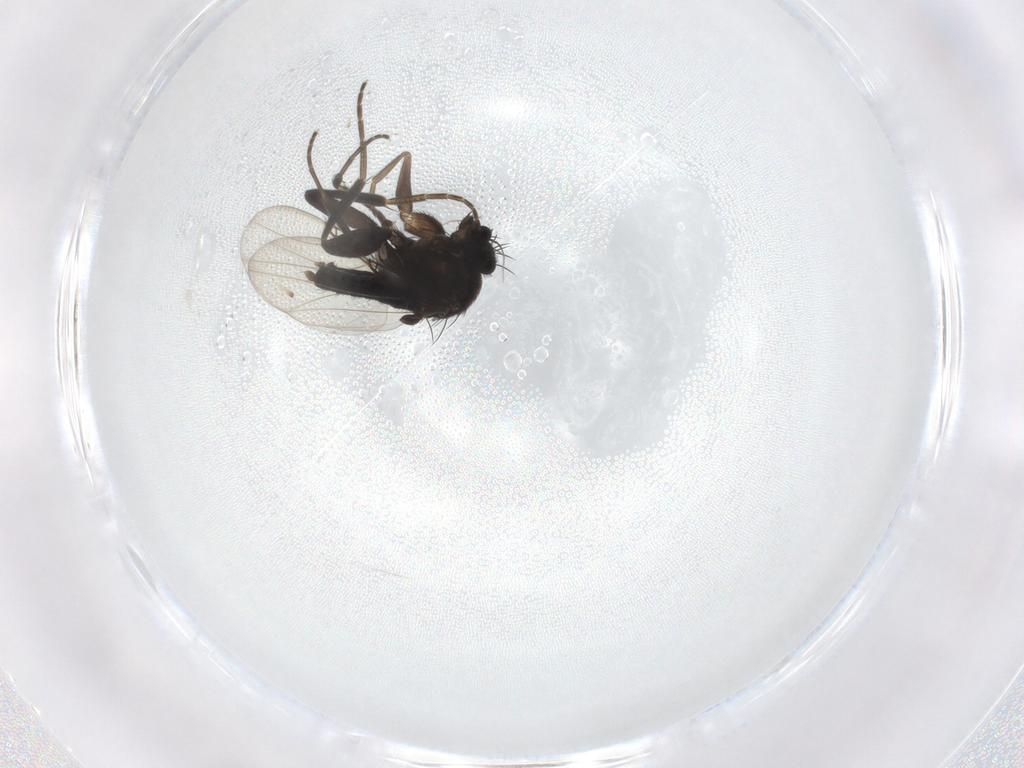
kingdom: Animalia
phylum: Arthropoda
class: Insecta
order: Diptera
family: Phoridae
